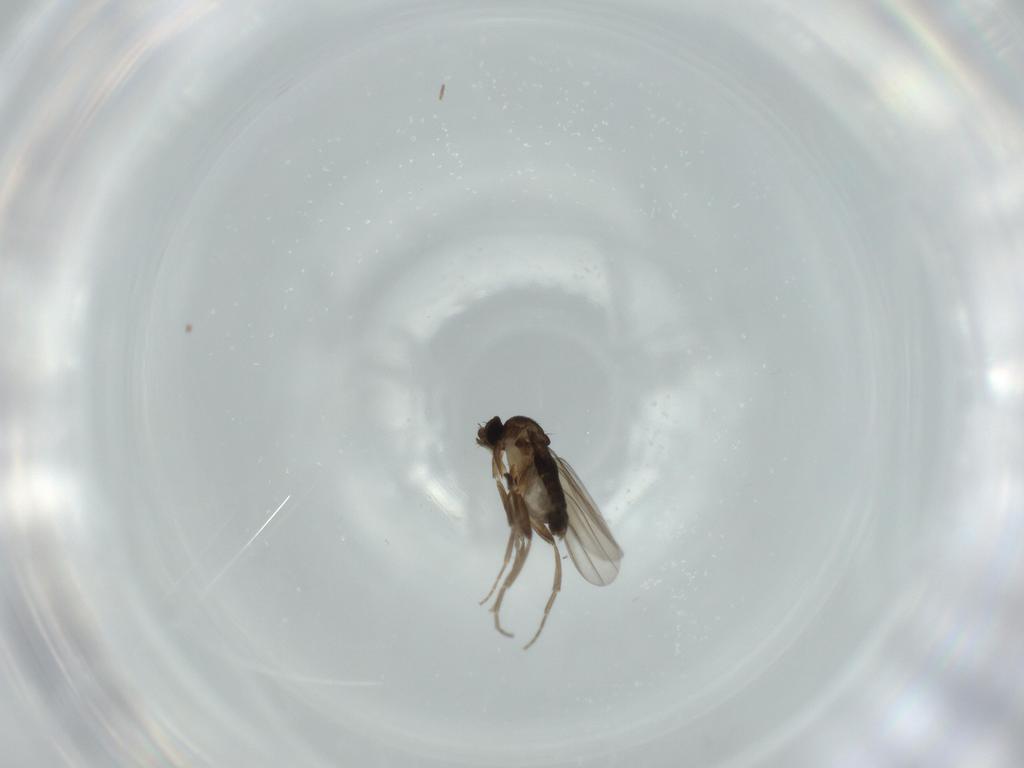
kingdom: Animalia
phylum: Arthropoda
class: Insecta
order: Diptera
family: Phoridae
